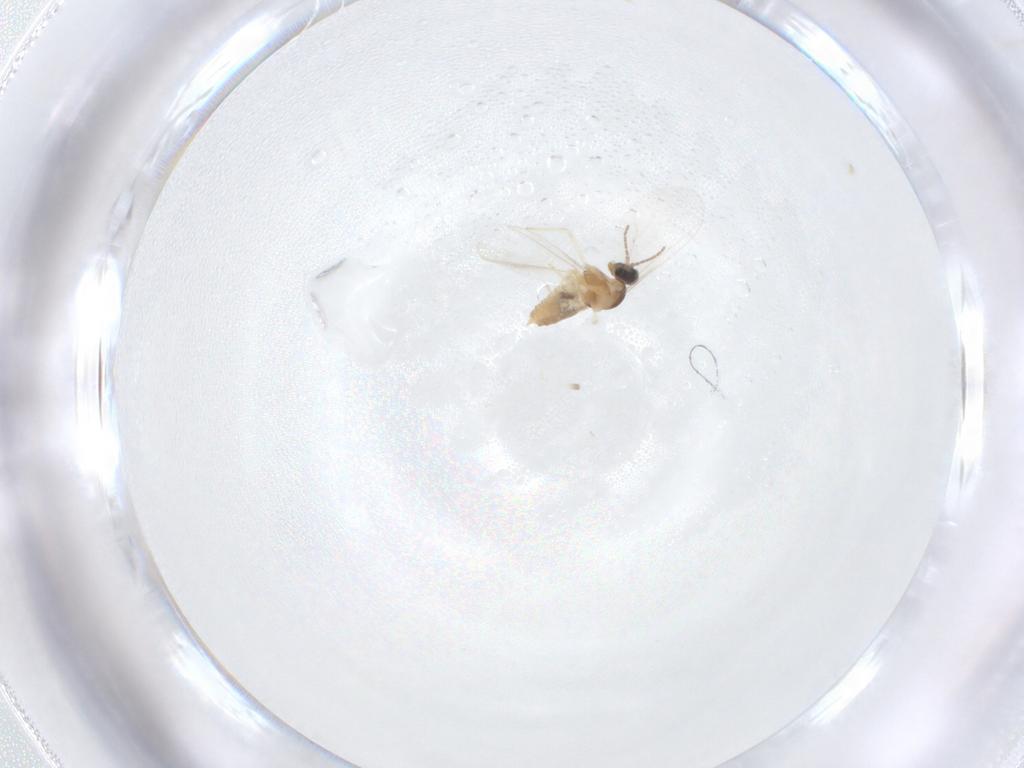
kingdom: Animalia
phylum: Arthropoda
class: Insecta
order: Diptera
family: Cecidomyiidae
